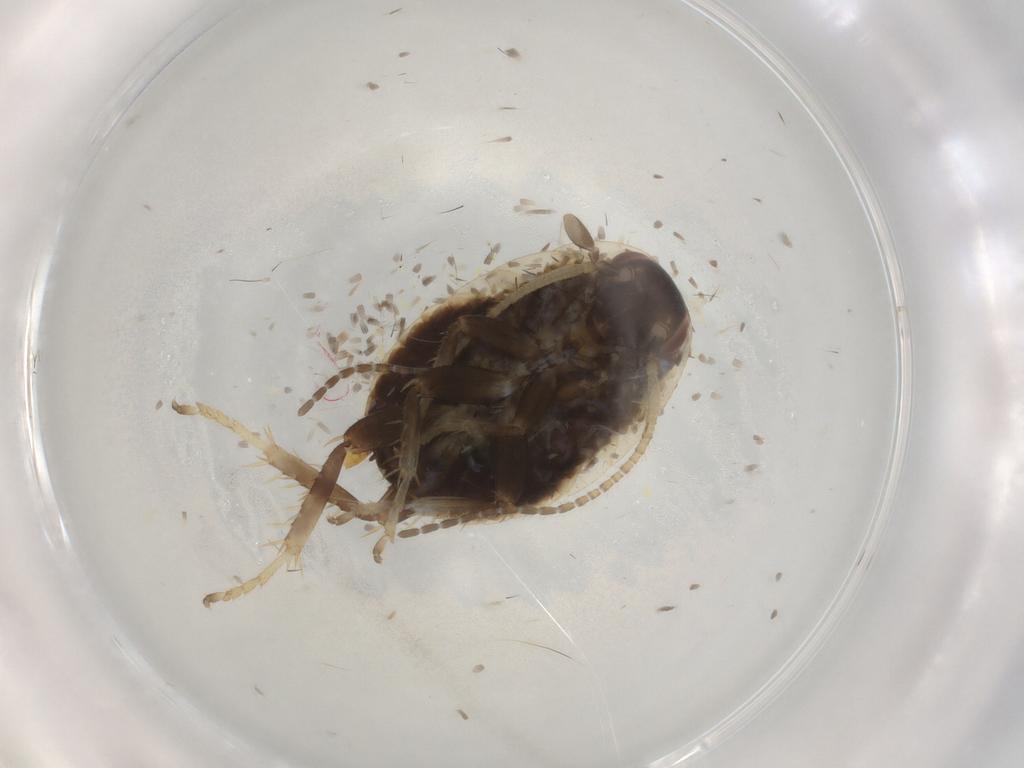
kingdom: Animalia
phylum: Arthropoda
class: Insecta
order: Blattodea
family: Ectobiidae
